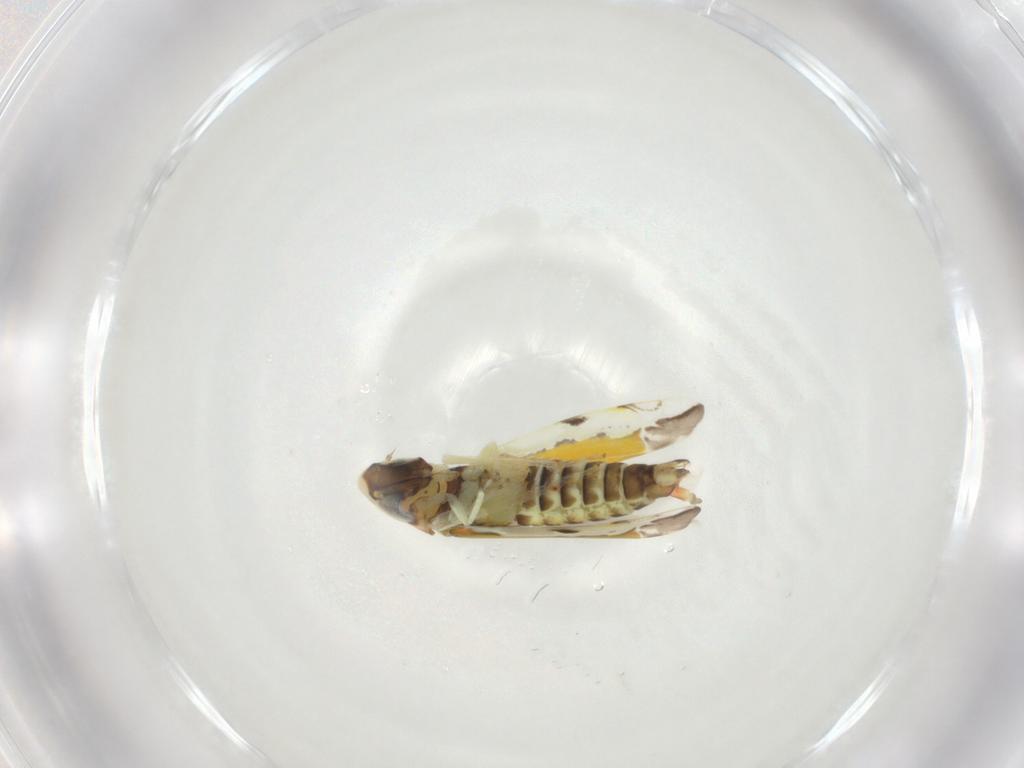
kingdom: Animalia
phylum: Arthropoda
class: Insecta
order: Hemiptera
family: Cicadellidae
